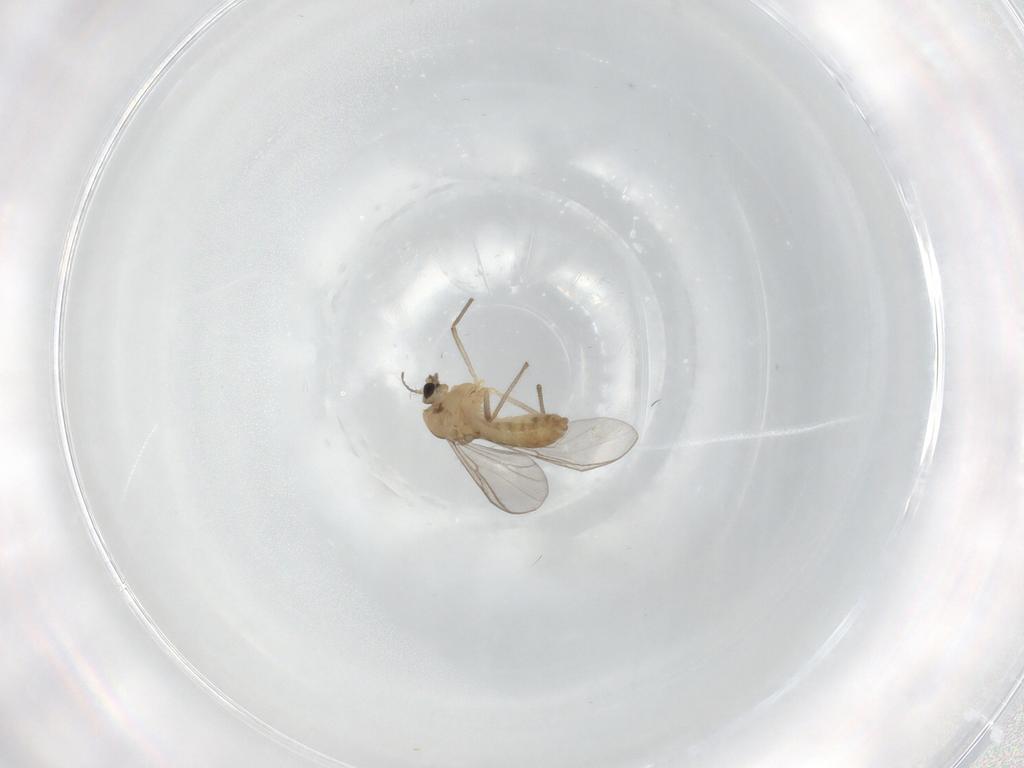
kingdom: Animalia
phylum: Arthropoda
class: Insecta
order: Diptera
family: Chironomidae
